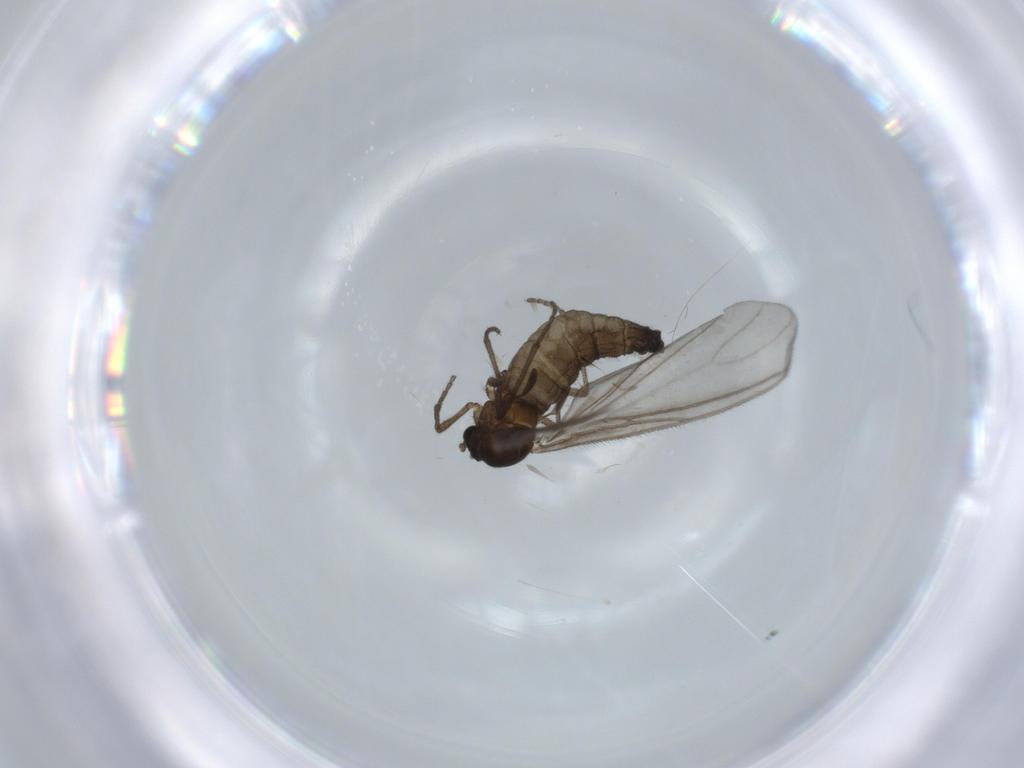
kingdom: Animalia
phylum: Arthropoda
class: Insecta
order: Diptera
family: Sciaridae
